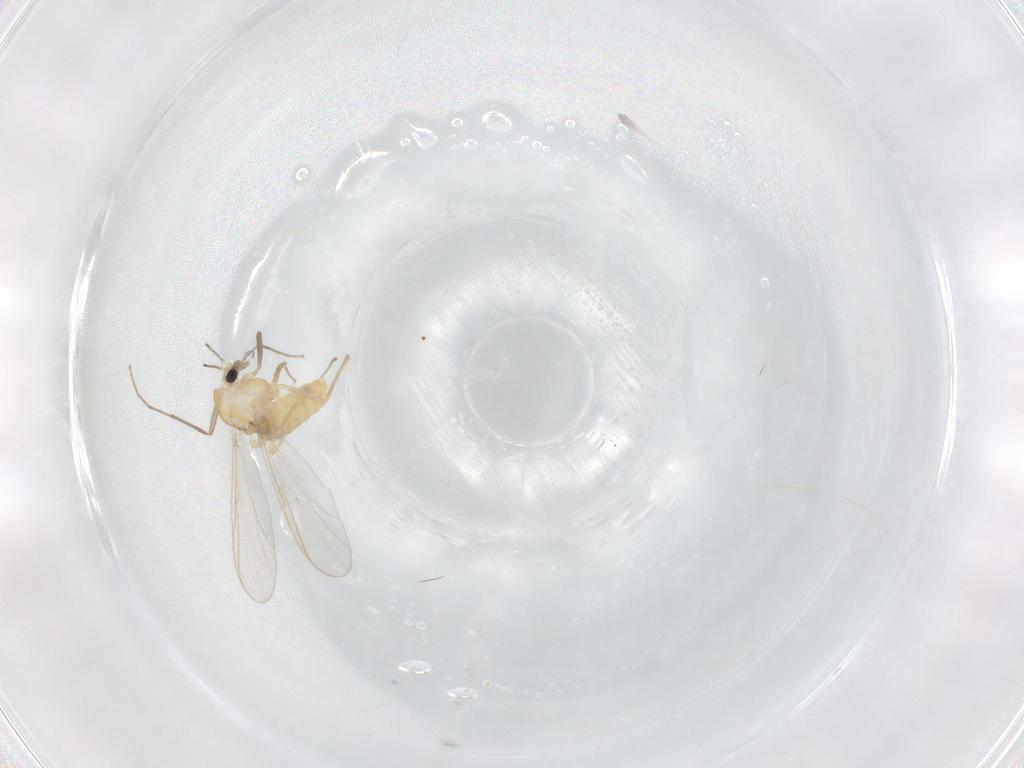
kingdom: Animalia
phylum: Arthropoda
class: Insecta
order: Diptera
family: Chironomidae
